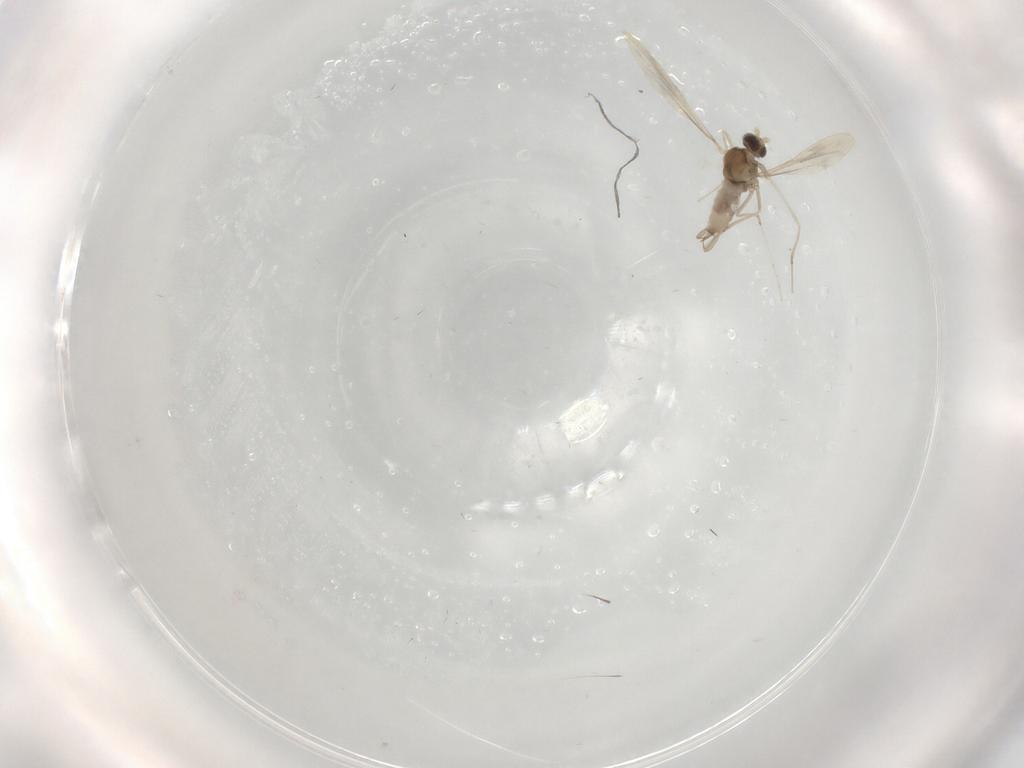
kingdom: Animalia
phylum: Arthropoda
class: Insecta
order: Diptera
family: Cecidomyiidae
